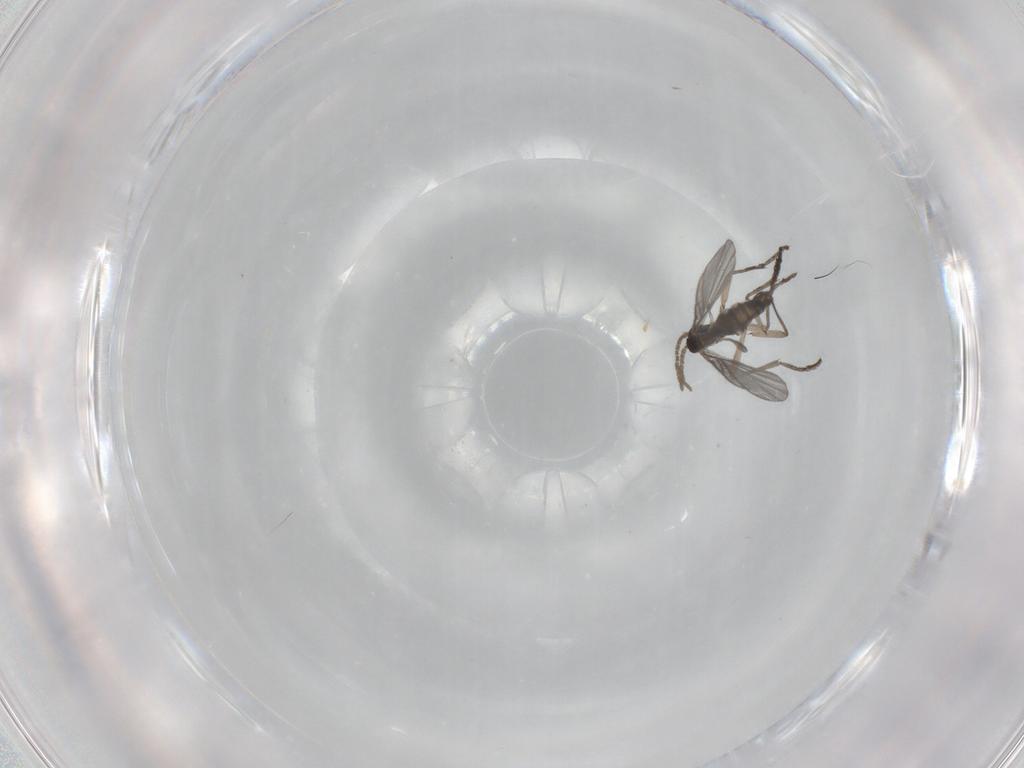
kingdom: Animalia
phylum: Arthropoda
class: Insecta
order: Diptera
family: Sciaridae
